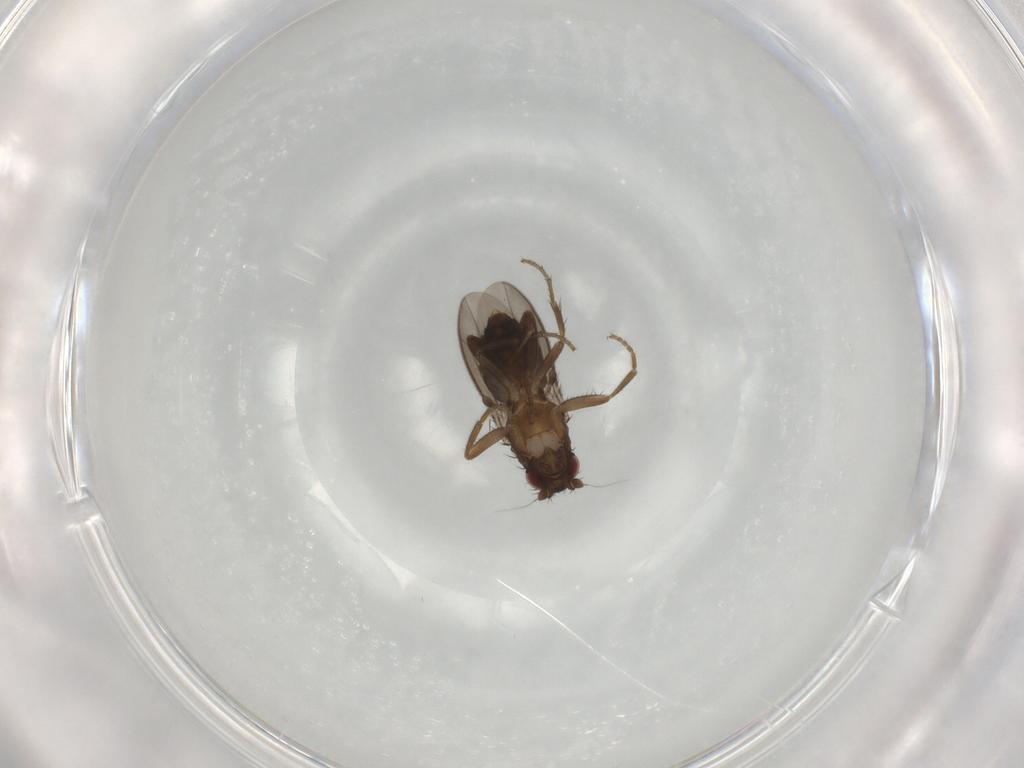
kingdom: Animalia
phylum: Arthropoda
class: Insecta
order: Diptera
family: Sphaeroceridae
